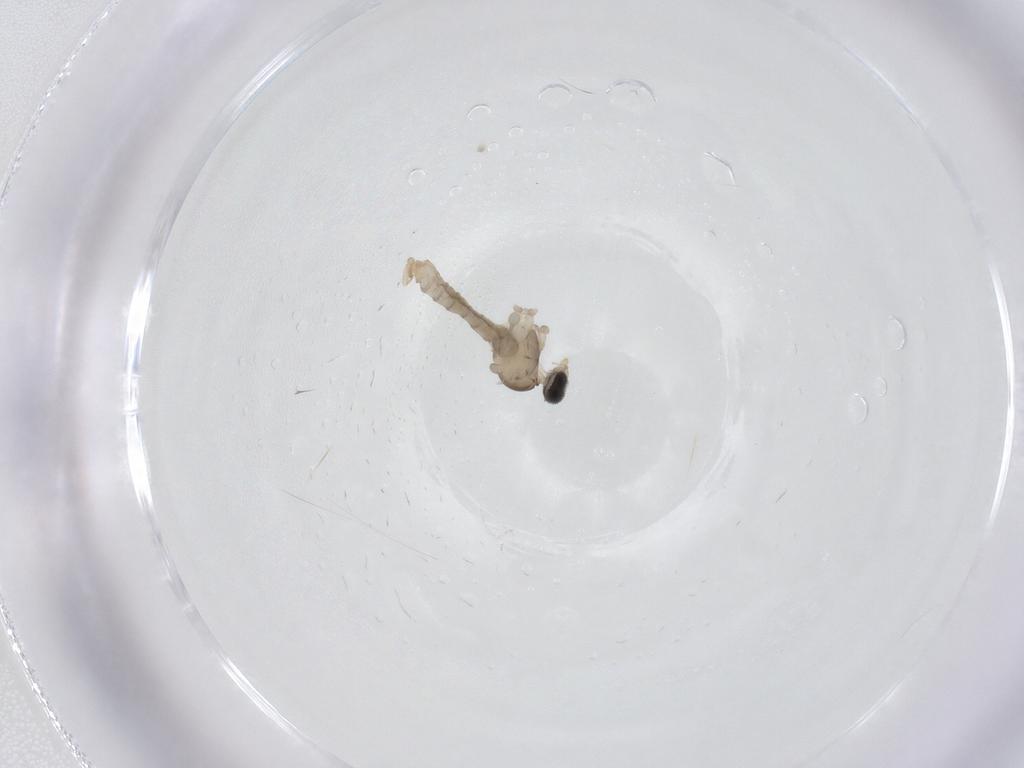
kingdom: Animalia
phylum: Arthropoda
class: Insecta
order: Diptera
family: Cecidomyiidae
